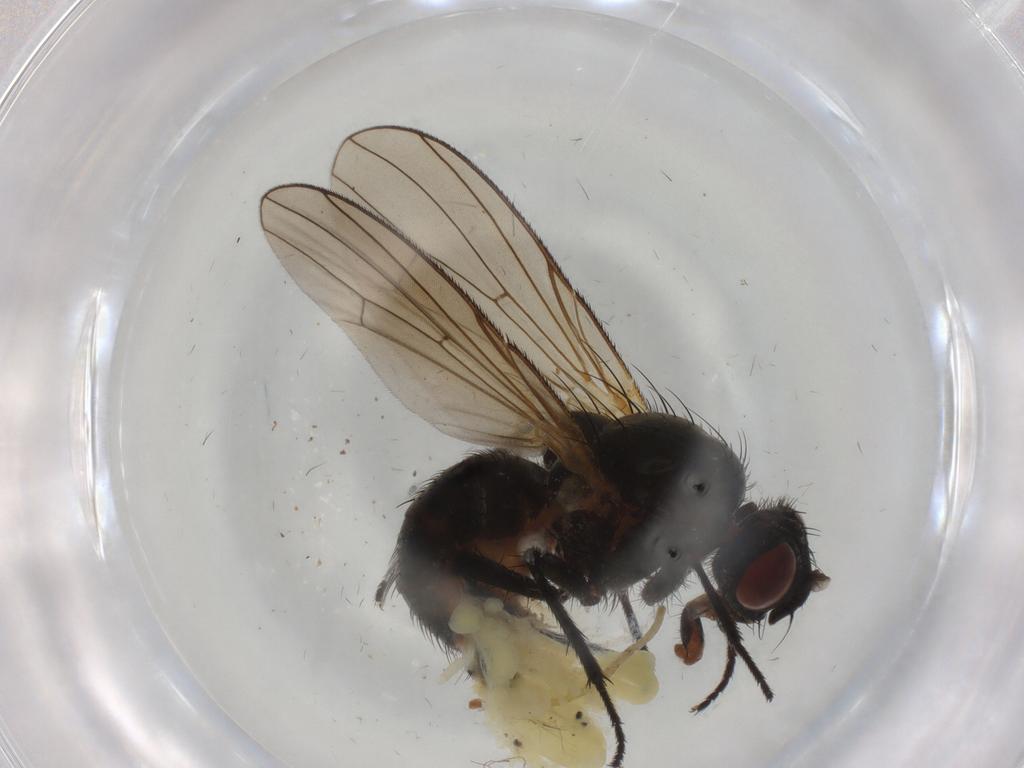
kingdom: Animalia
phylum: Arthropoda
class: Insecta
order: Diptera
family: Anthomyiidae
